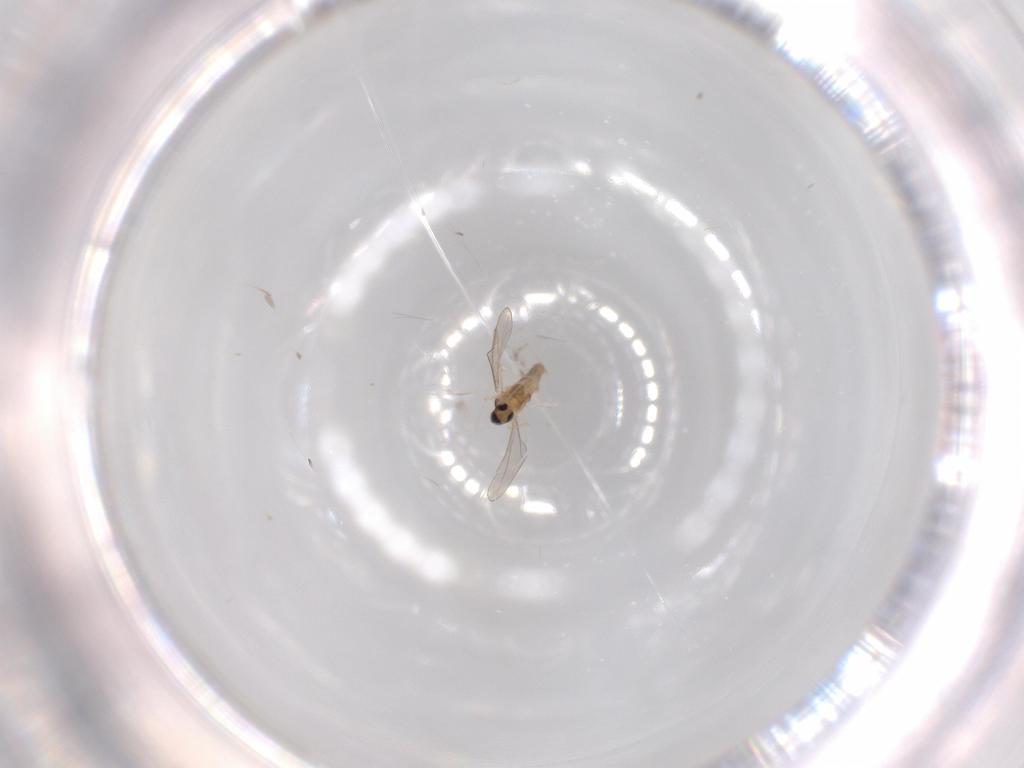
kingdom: Animalia
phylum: Arthropoda
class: Insecta
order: Diptera
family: Cecidomyiidae
